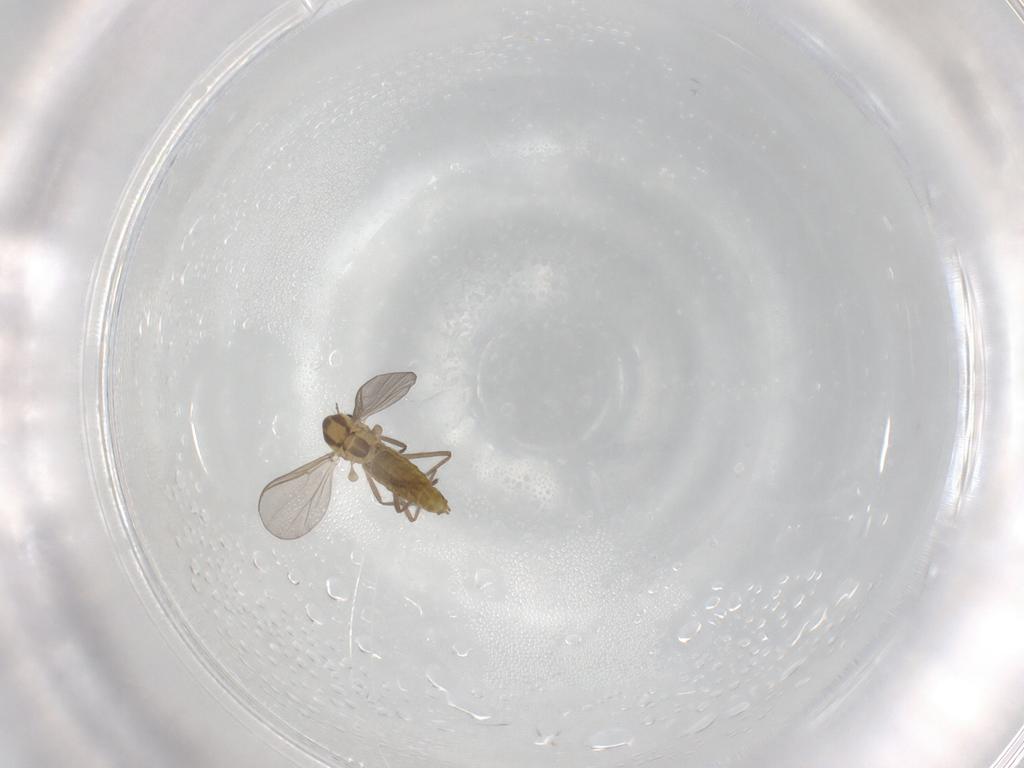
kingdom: Animalia
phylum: Arthropoda
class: Insecta
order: Diptera
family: Chironomidae
